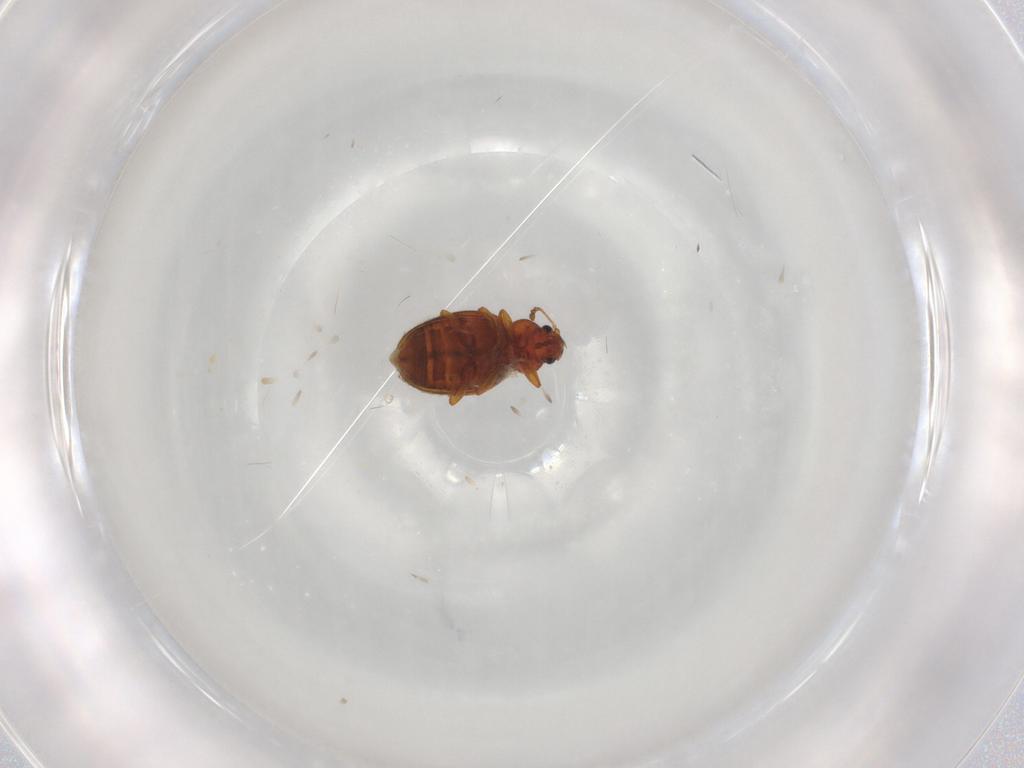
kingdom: Animalia
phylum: Arthropoda
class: Insecta
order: Coleoptera
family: Latridiidae
